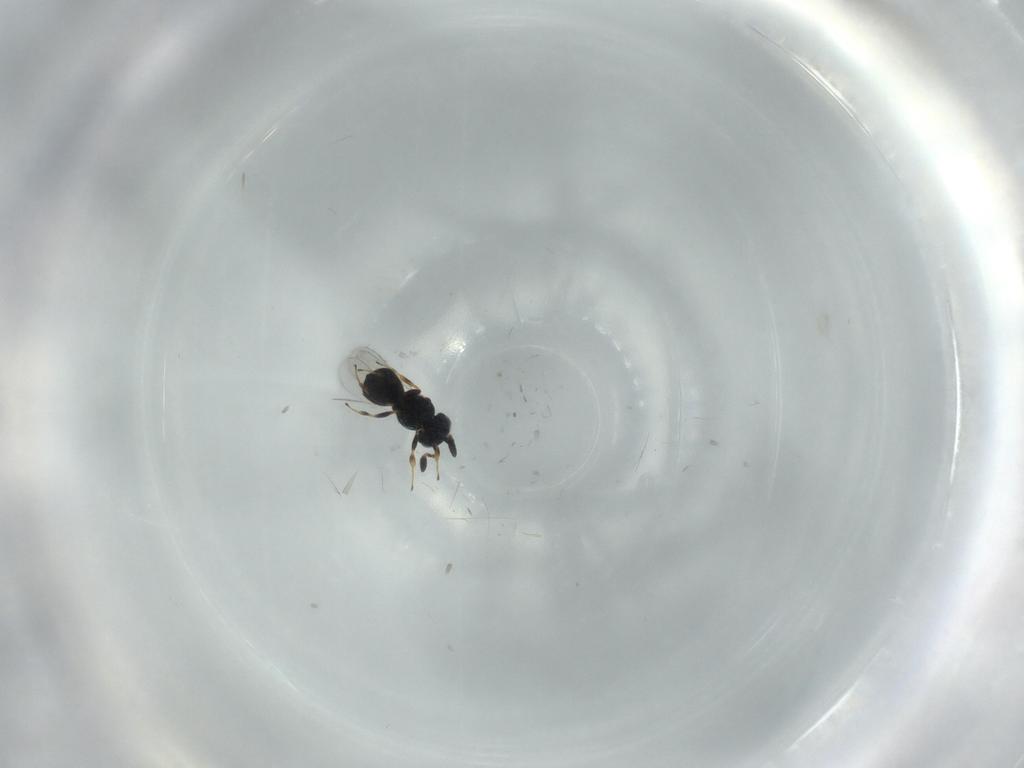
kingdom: Animalia
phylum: Arthropoda
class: Insecta
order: Hymenoptera
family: Scelionidae
